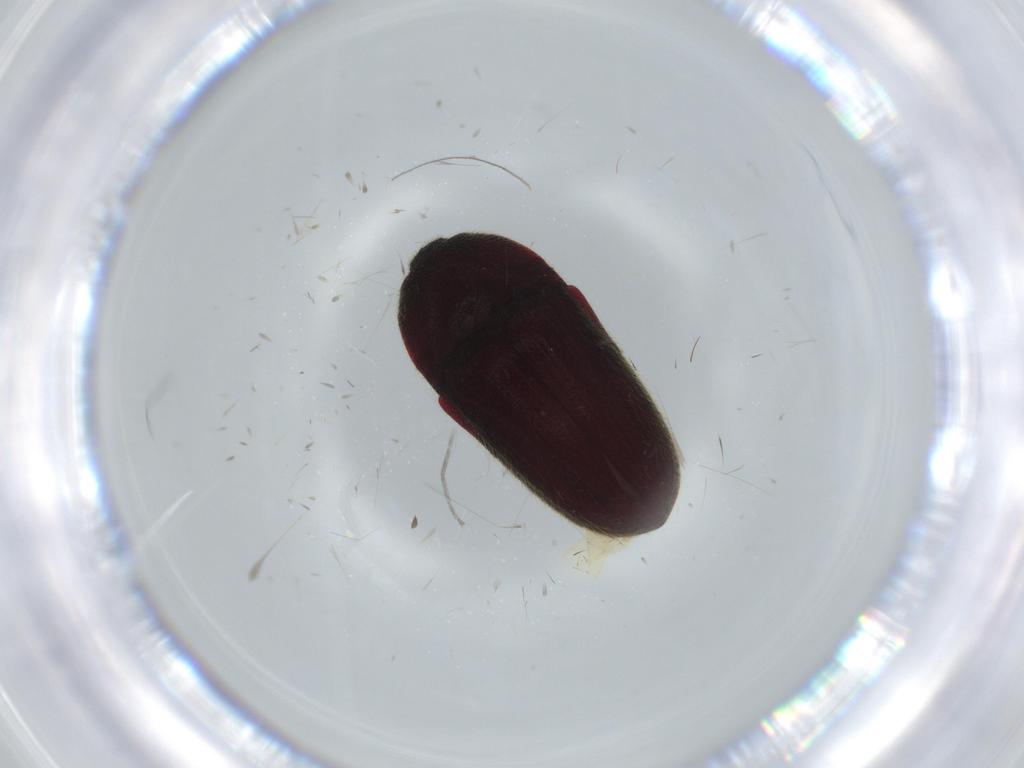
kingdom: Animalia
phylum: Arthropoda
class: Insecta
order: Coleoptera
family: Throscidae
